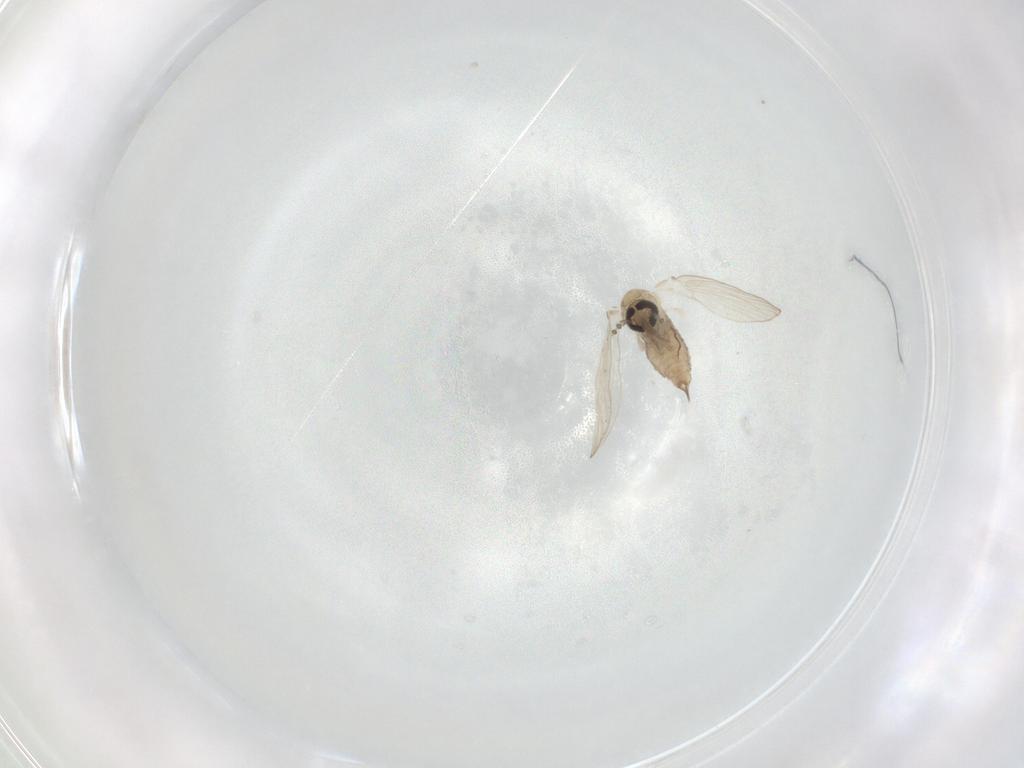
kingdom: Animalia
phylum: Arthropoda
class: Insecta
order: Diptera
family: Psychodidae
